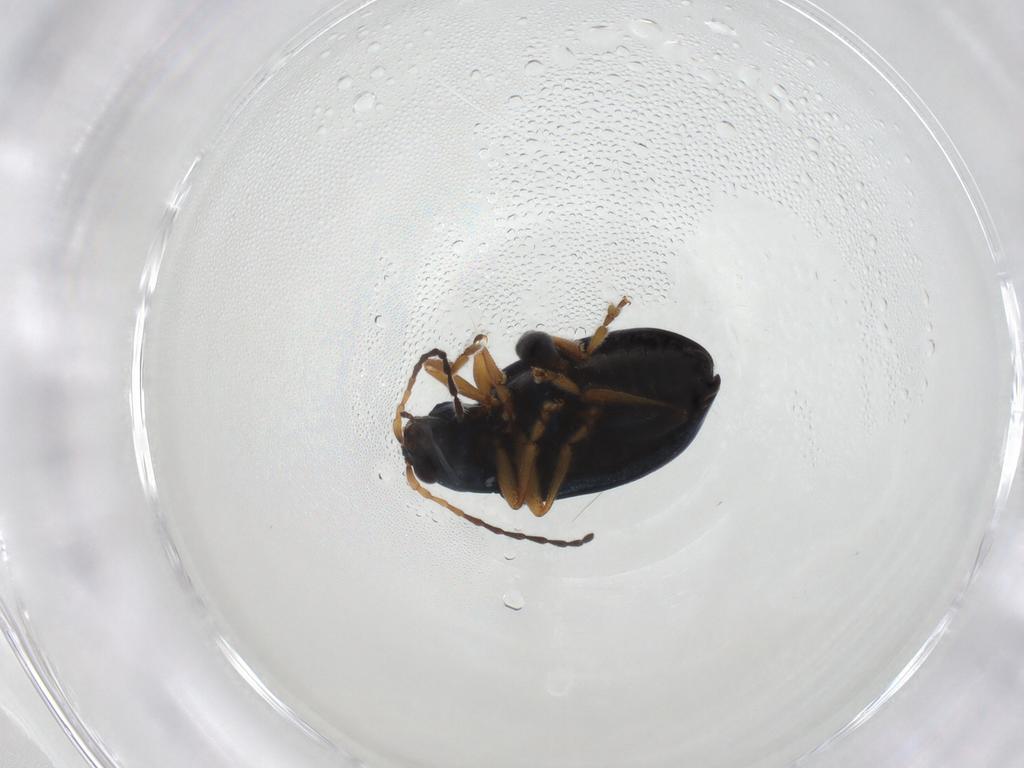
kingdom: Animalia
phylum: Arthropoda
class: Insecta
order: Coleoptera
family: Chrysomelidae
